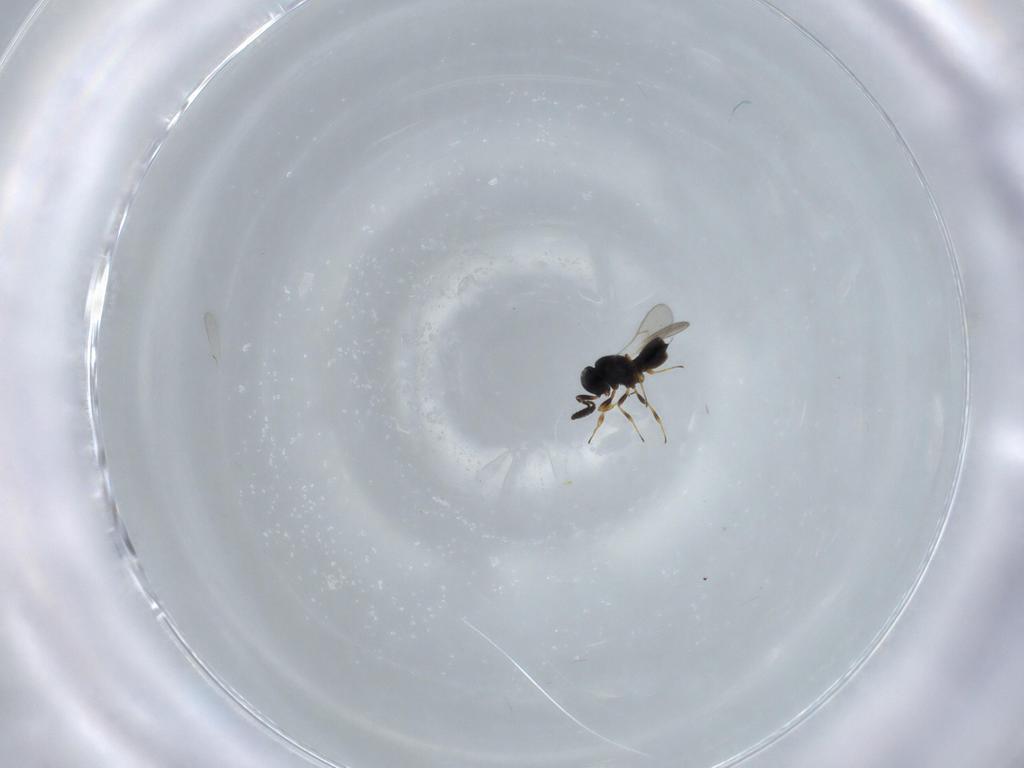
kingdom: Animalia
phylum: Arthropoda
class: Insecta
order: Hymenoptera
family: Scelionidae
